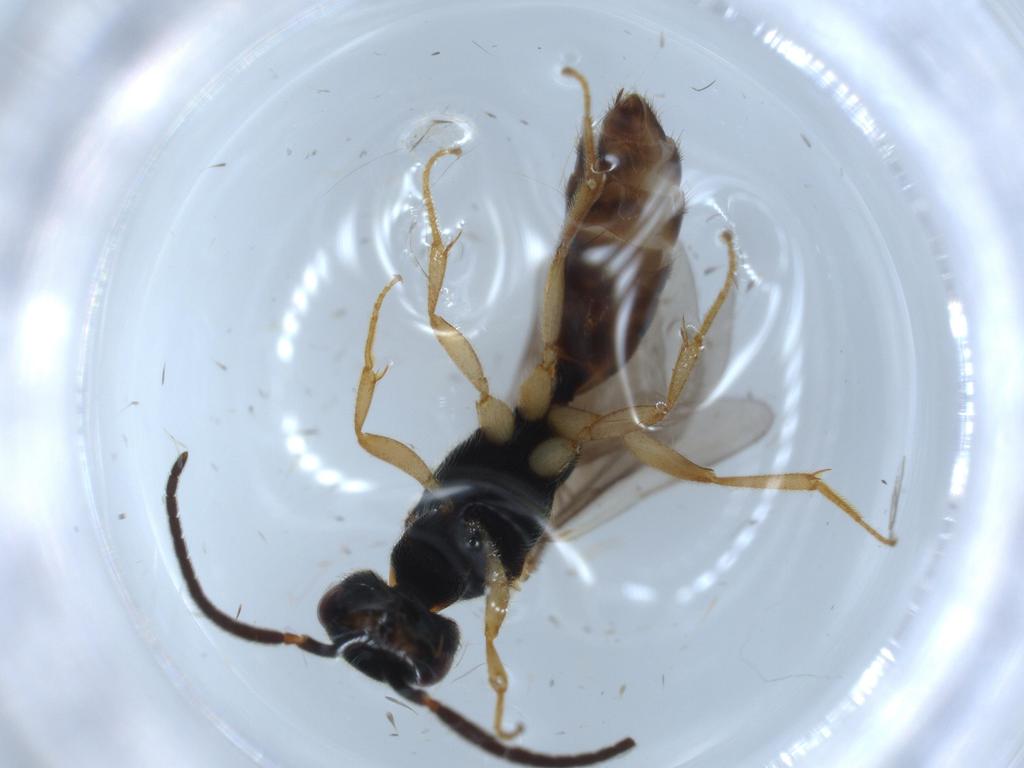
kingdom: Animalia
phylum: Arthropoda
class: Insecta
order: Hymenoptera
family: Bethylidae
